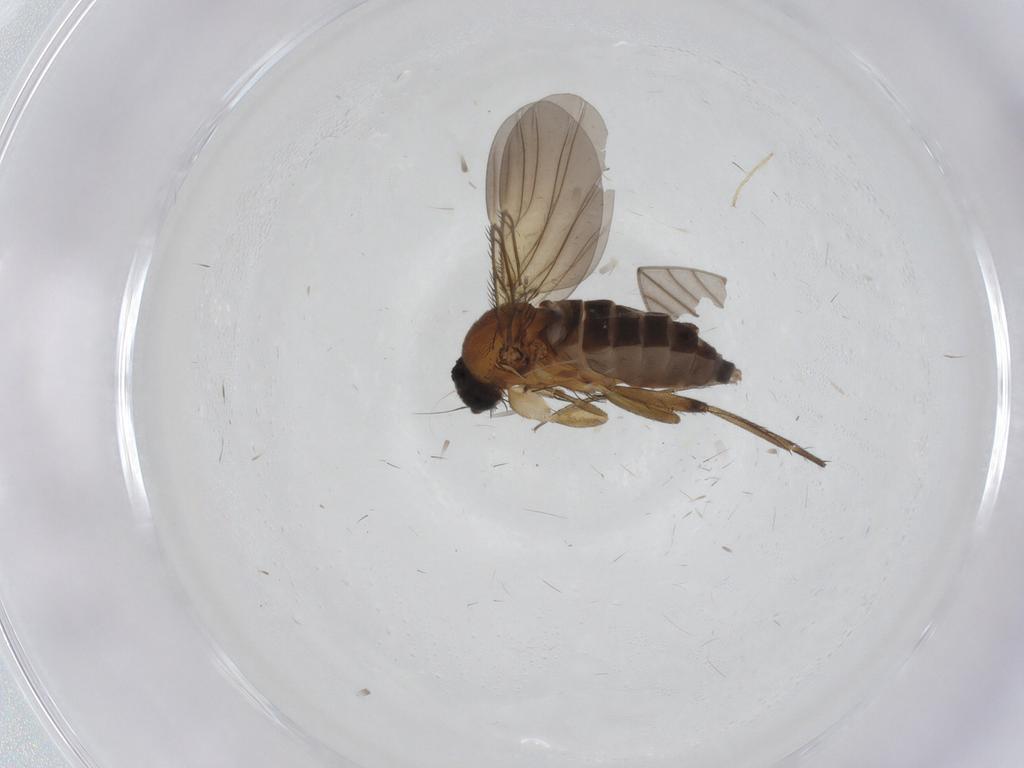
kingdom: Animalia
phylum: Arthropoda
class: Insecta
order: Diptera
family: Phoridae
